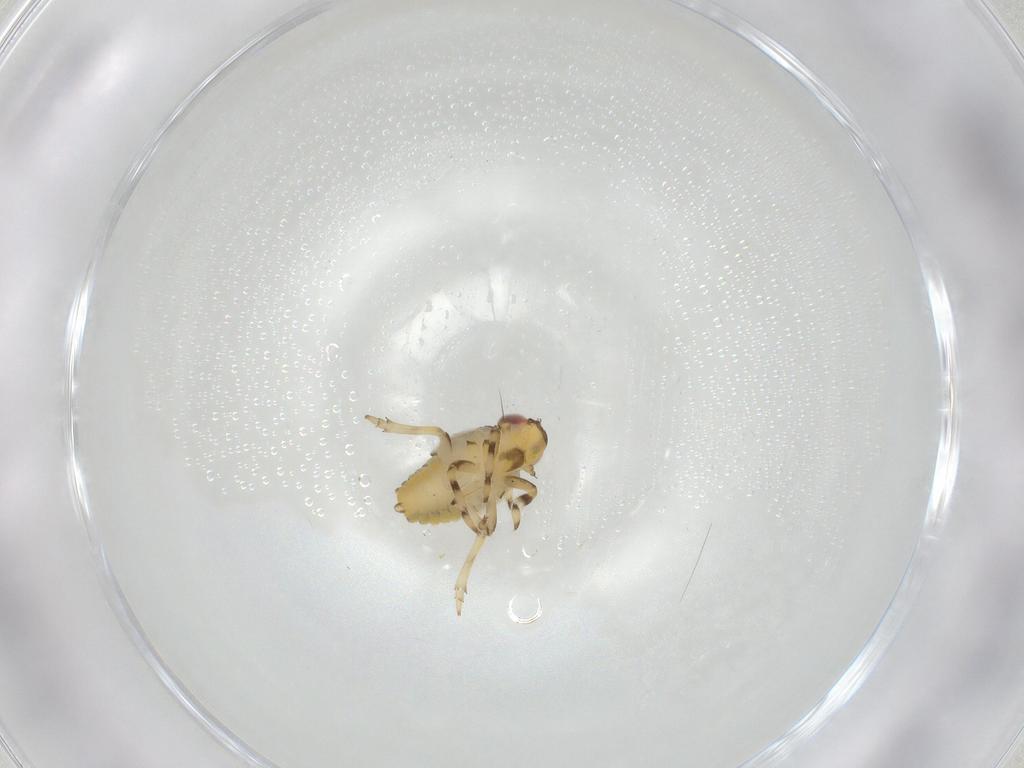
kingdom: Animalia
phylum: Arthropoda
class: Insecta
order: Hemiptera
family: Issidae
